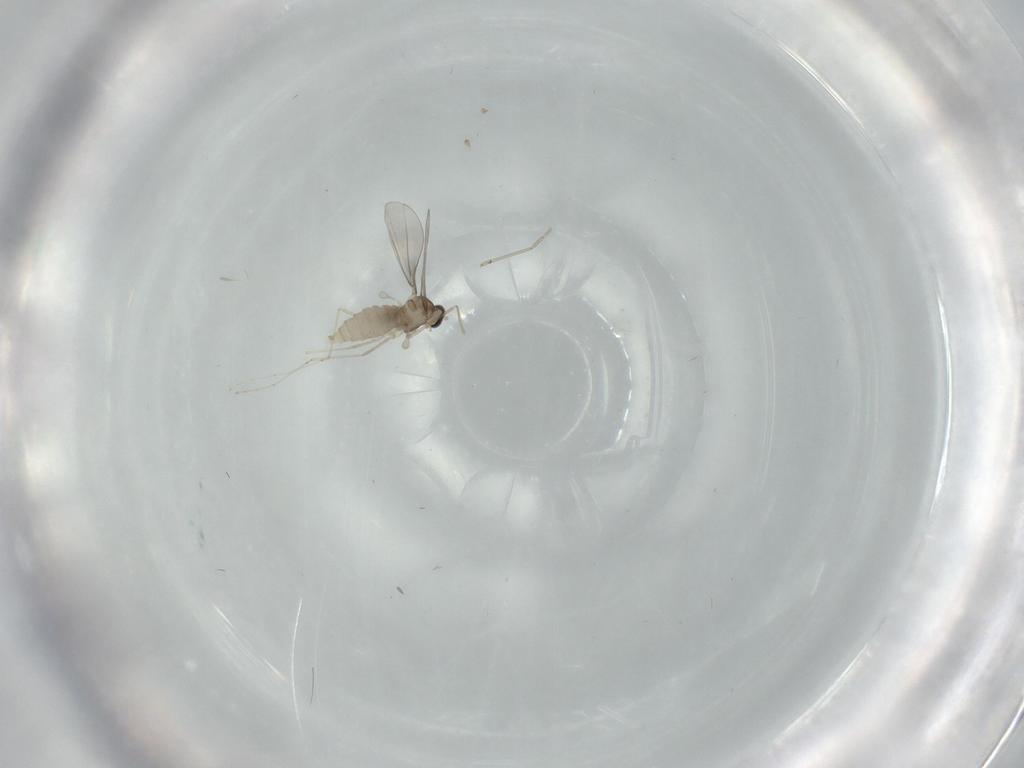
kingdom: Animalia
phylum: Arthropoda
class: Insecta
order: Diptera
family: Cecidomyiidae
